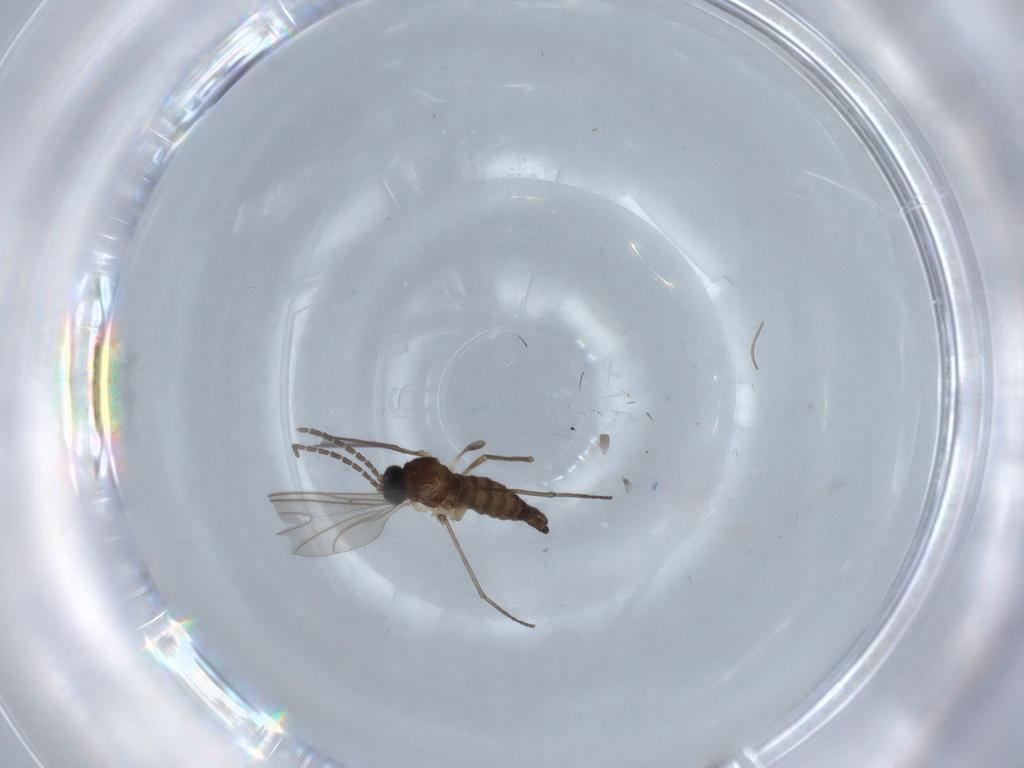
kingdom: Animalia
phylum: Arthropoda
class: Insecta
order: Diptera
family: Sciaridae
